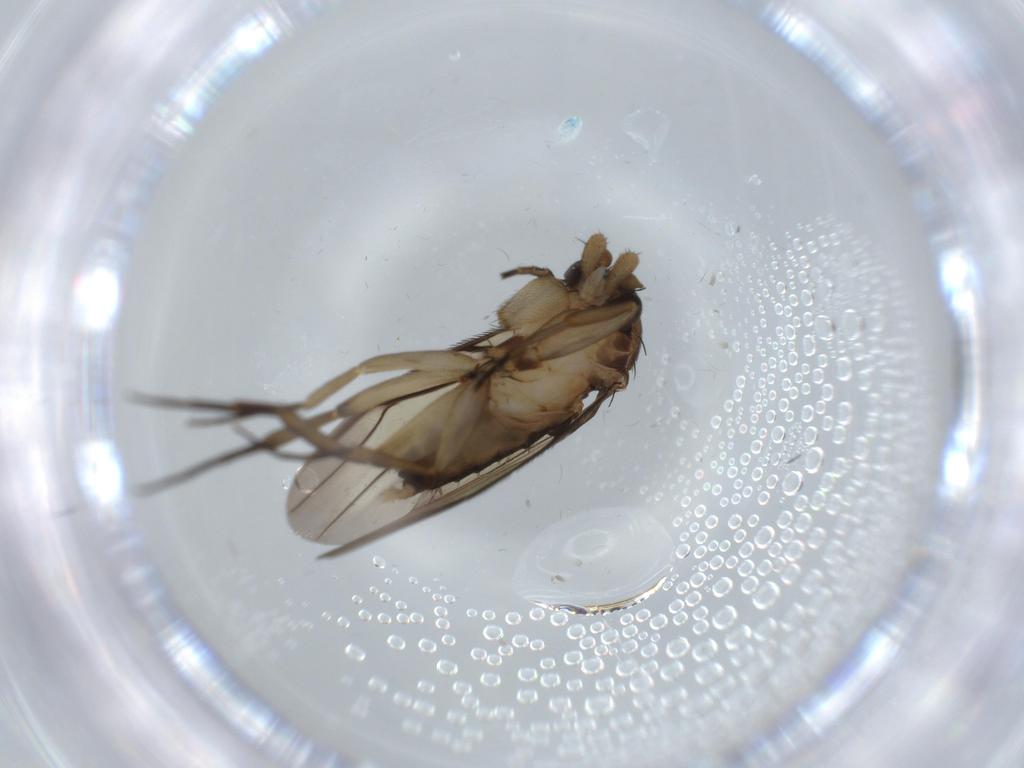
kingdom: Animalia
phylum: Arthropoda
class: Insecta
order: Diptera
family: Phoridae
